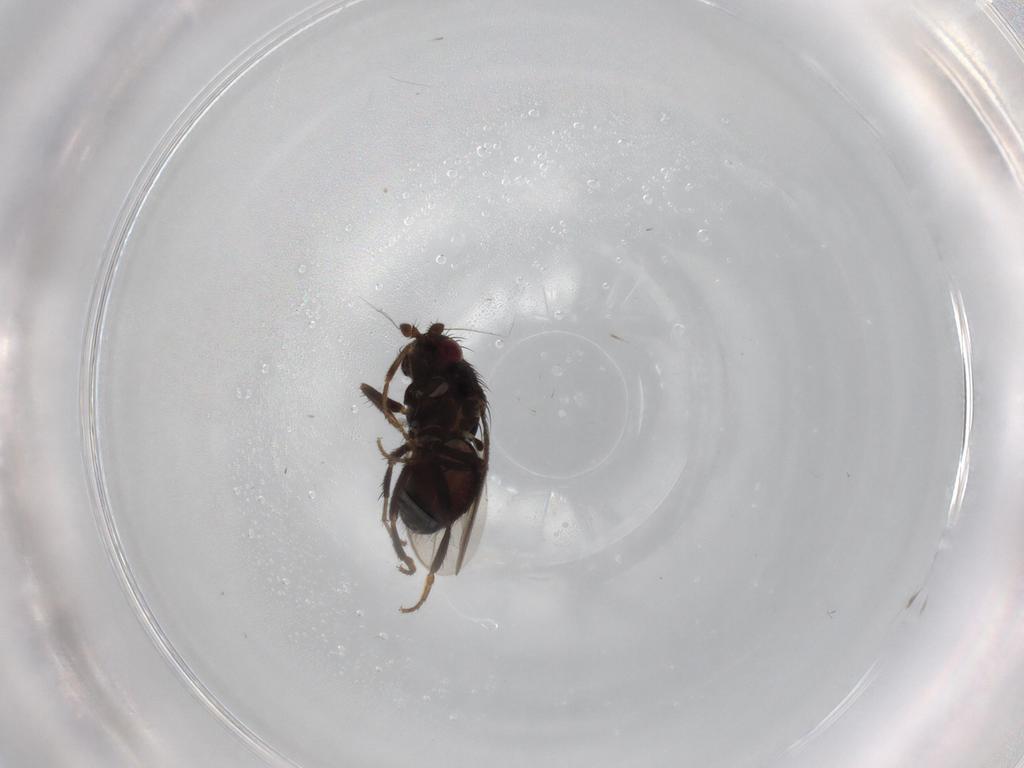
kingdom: Animalia
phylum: Arthropoda
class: Insecta
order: Diptera
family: Sphaeroceridae
